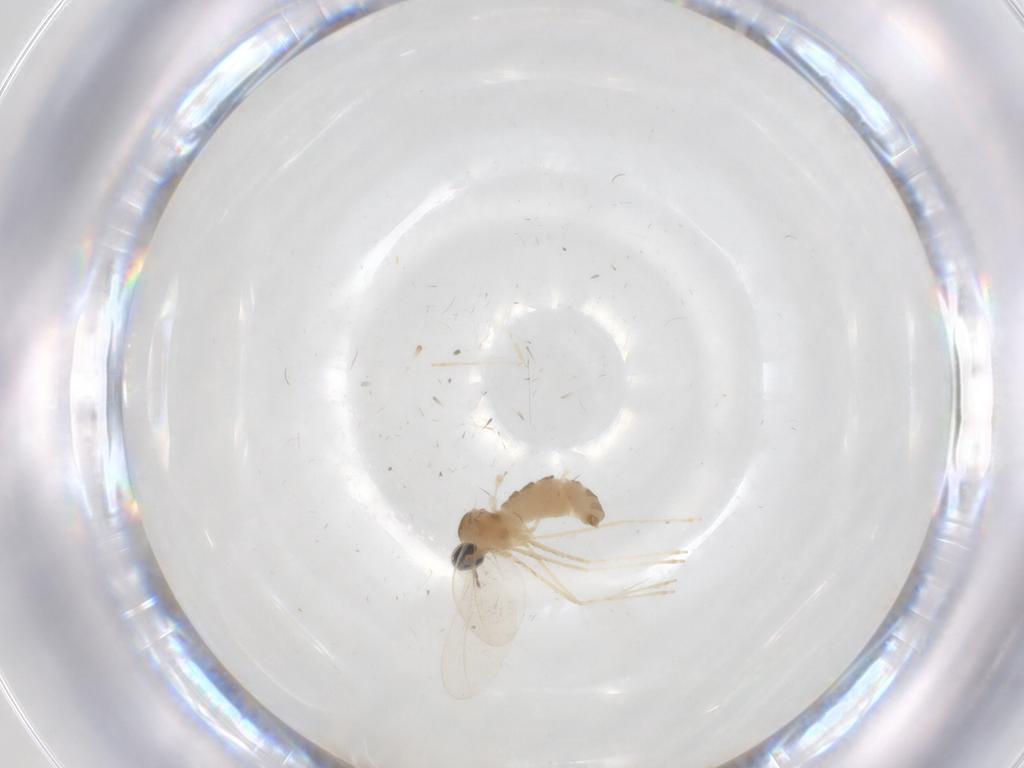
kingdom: Animalia
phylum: Arthropoda
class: Insecta
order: Diptera
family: Cecidomyiidae
